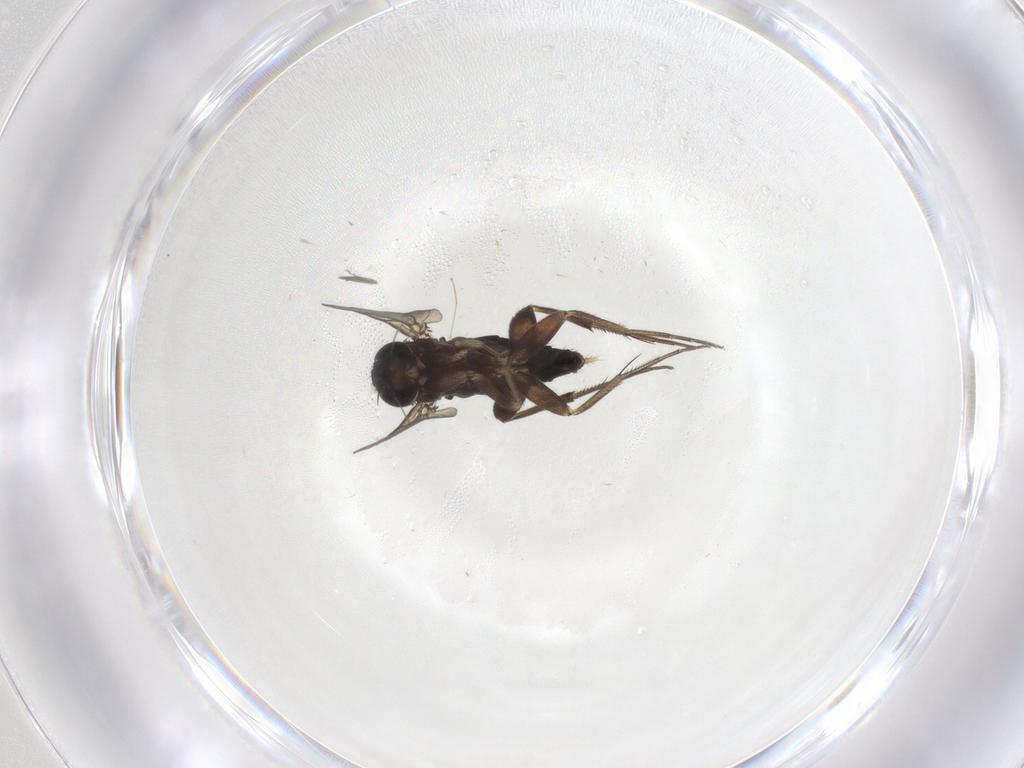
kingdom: Animalia
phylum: Arthropoda
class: Insecta
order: Diptera
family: Phoridae
